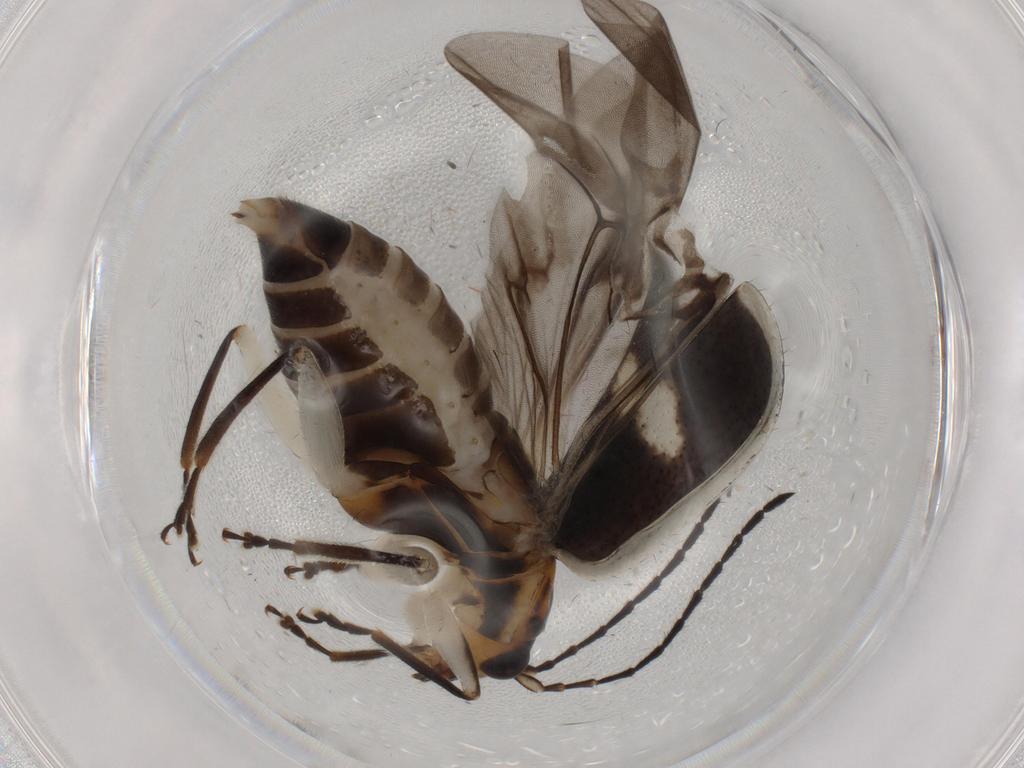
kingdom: Animalia
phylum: Arthropoda
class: Insecta
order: Coleoptera
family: Chrysomelidae
